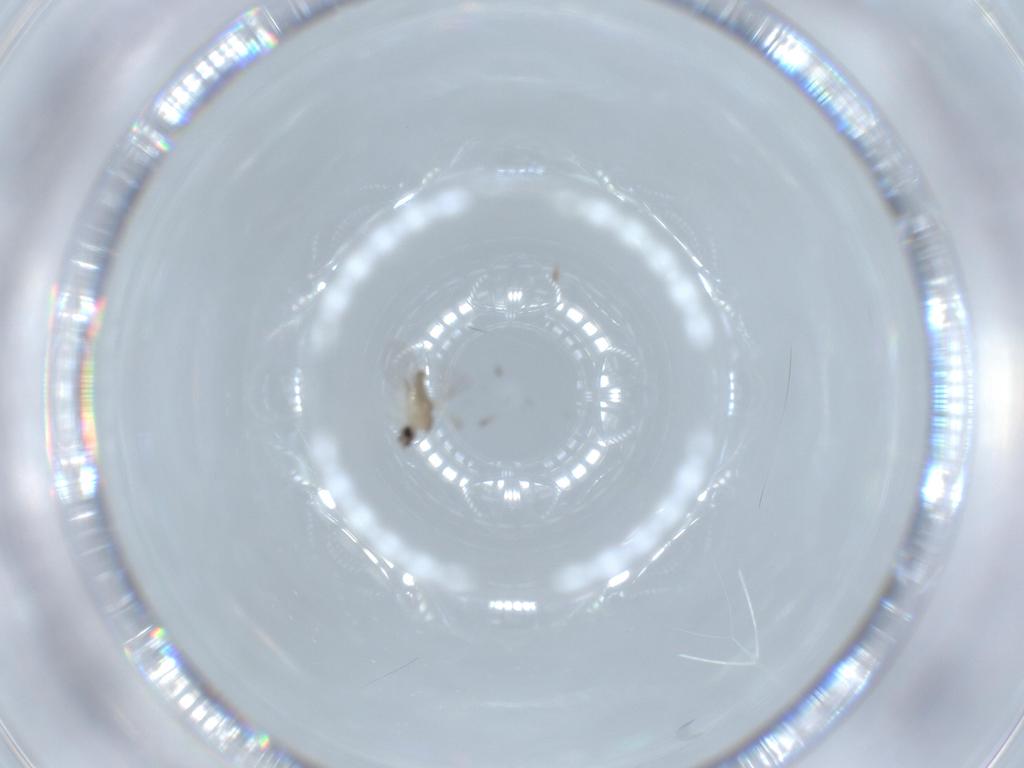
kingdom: Animalia
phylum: Arthropoda
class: Insecta
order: Diptera
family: Cecidomyiidae
